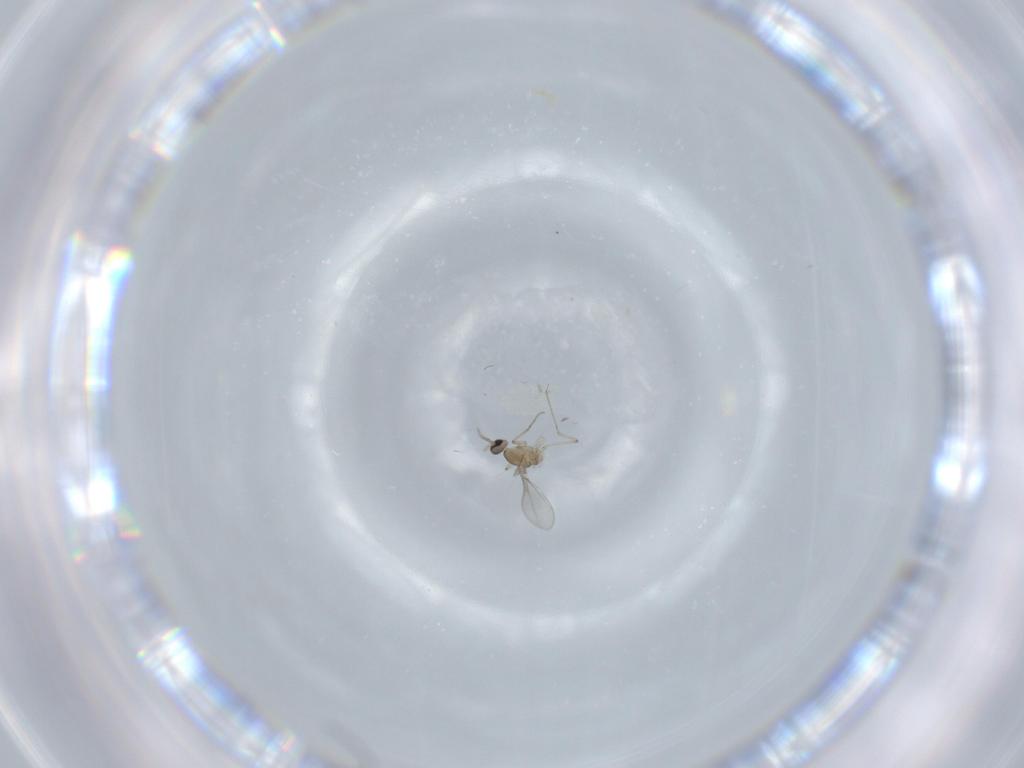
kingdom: Animalia
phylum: Arthropoda
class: Insecta
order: Diptera
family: Cecidomyiidae
